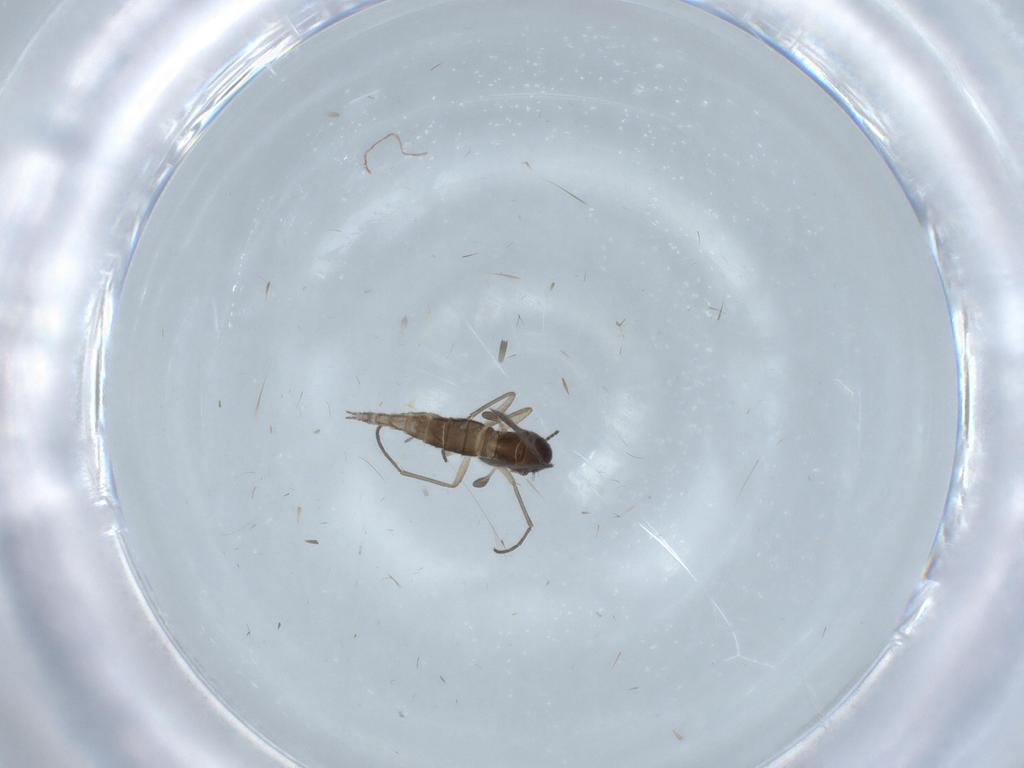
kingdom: Animalia
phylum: Arthropoda
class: Insecta
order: Diptera
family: Sciaridae
